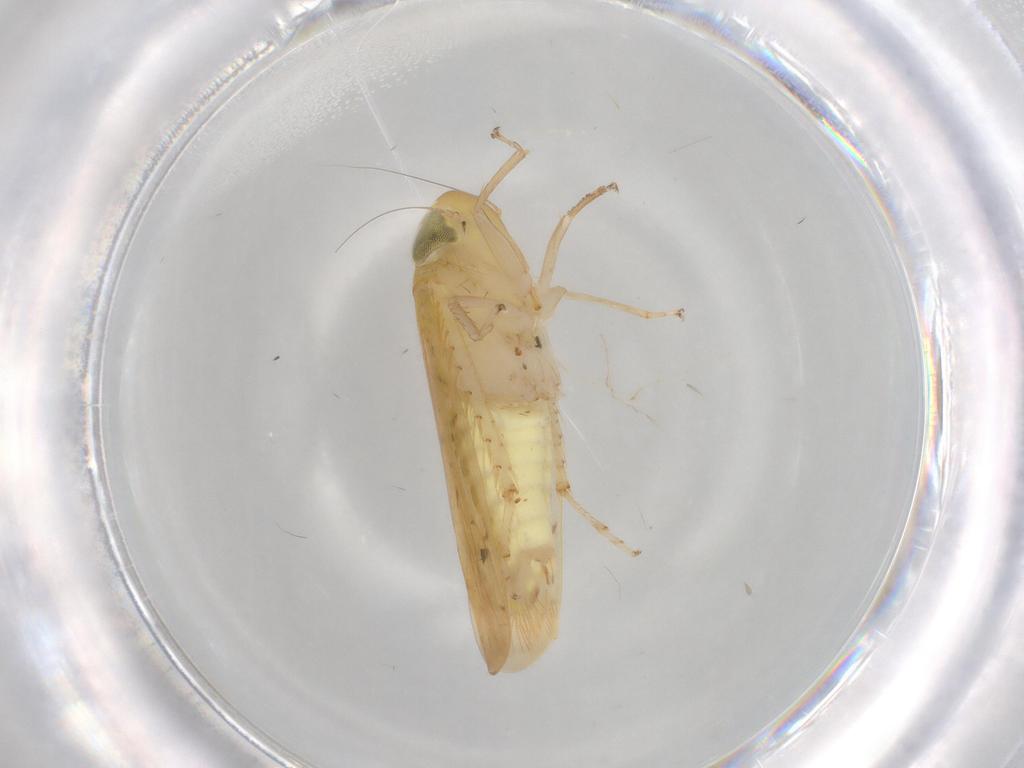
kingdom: Animalia
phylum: Arthropoda
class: Insecta
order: Hemiptera
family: Cicadellidae
